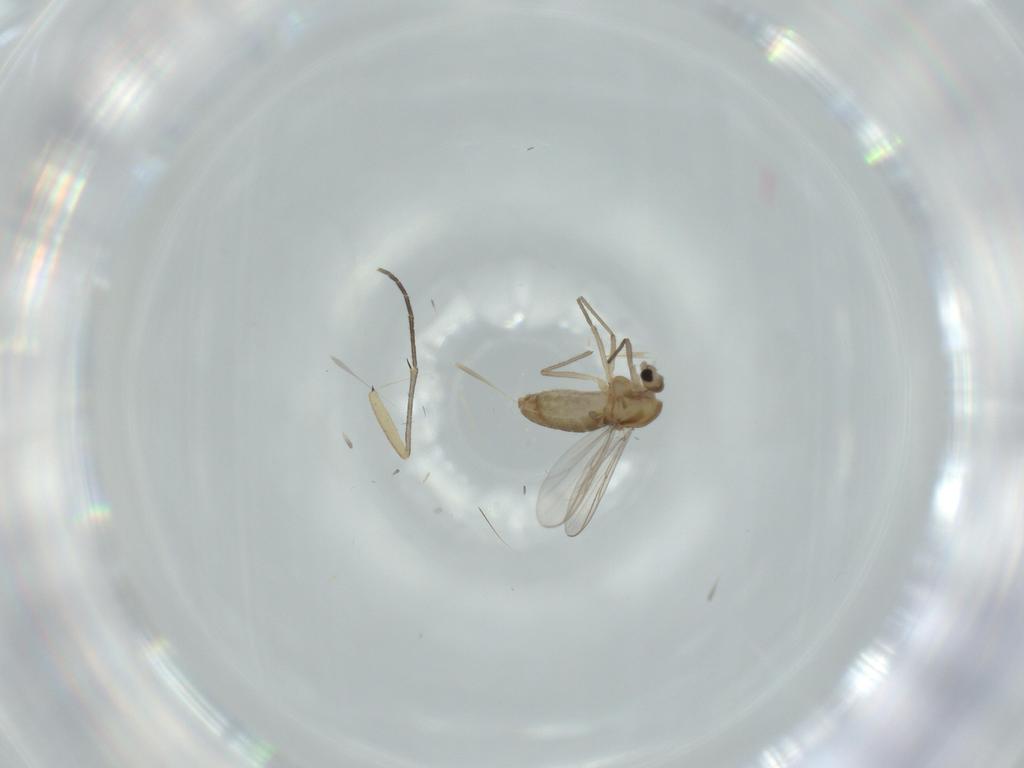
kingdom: Animalia
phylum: Arthropoda
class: Insecta
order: Diptera
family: Chironomidae
